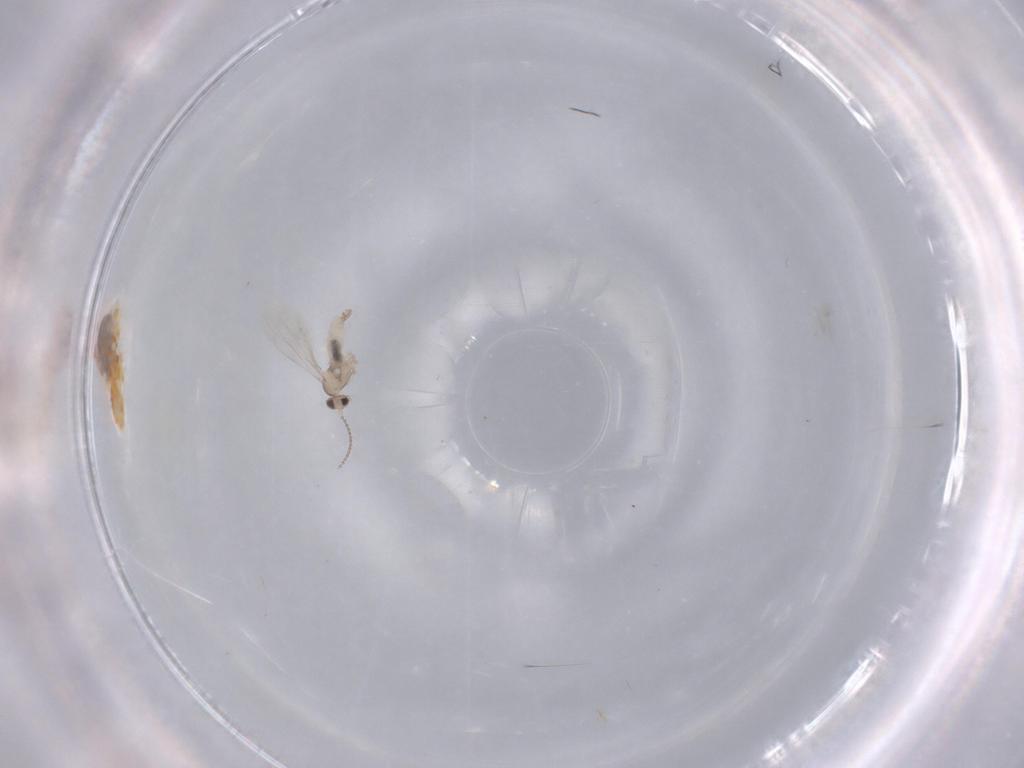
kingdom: Animalia
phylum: Arthropoda
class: Insecta
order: Diptera
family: Cecidomyiidae
